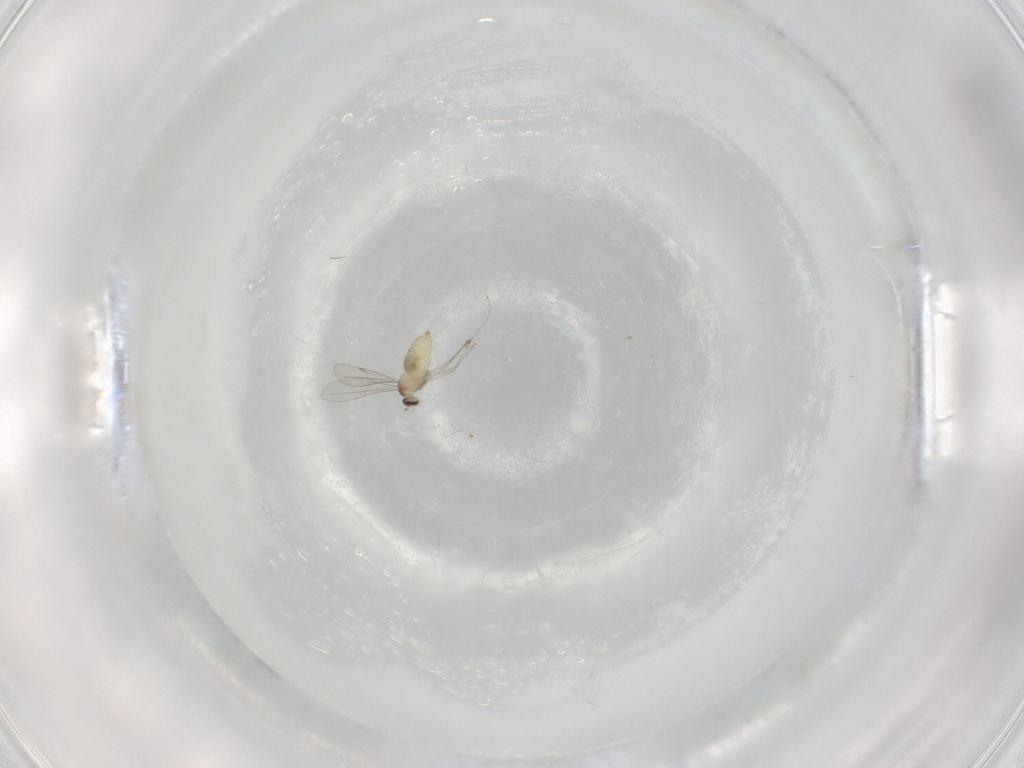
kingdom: Animalia
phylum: Arthropoda
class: Insecta
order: Diptera
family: Cecidomyiidae
